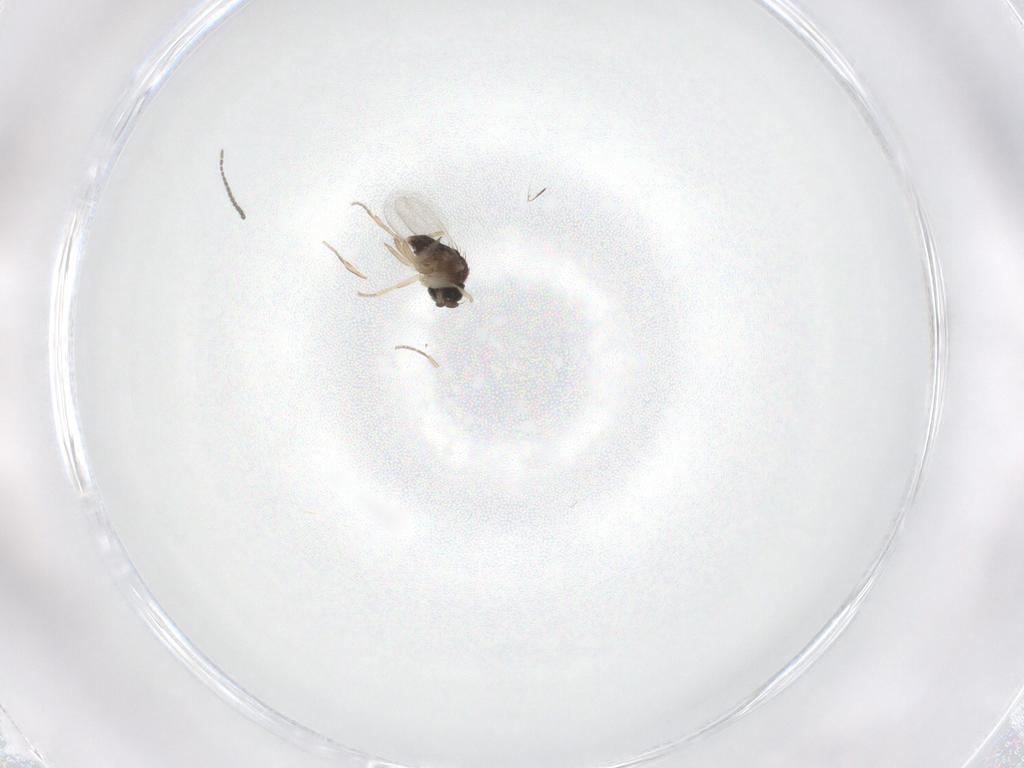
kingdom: Animalia
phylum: Arthropoda
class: Insecta
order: Diptera
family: Phoridae
